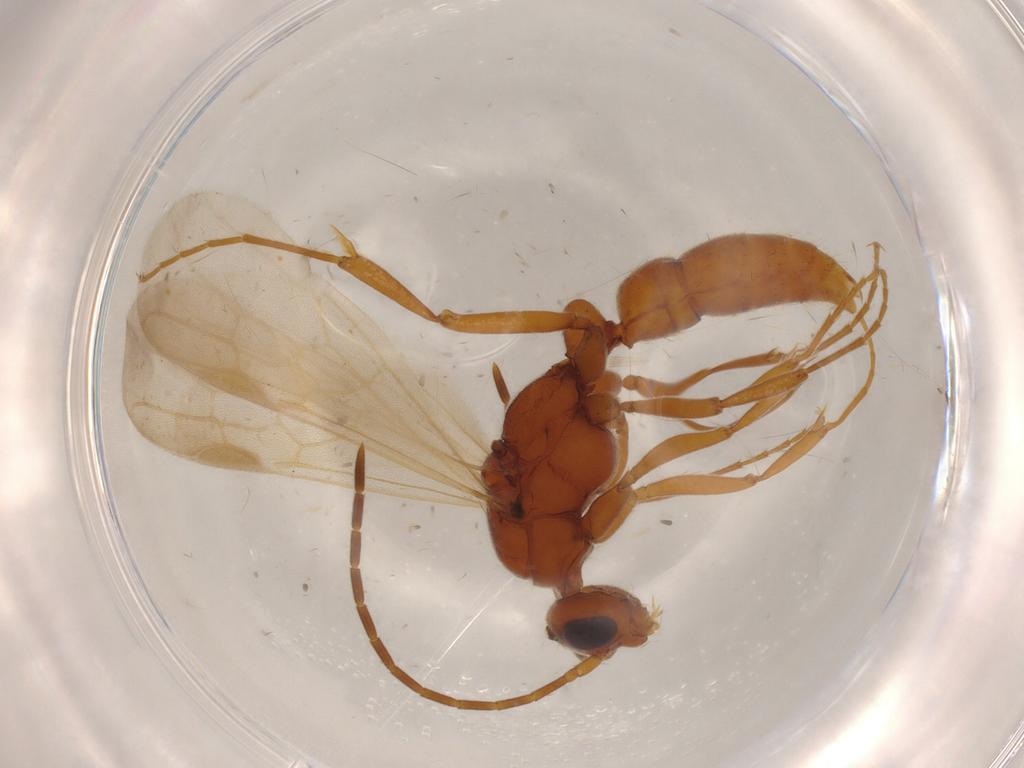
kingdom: Animalia
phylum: Arthropoda
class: Insecta
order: Hymenoptera
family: Formicidae
